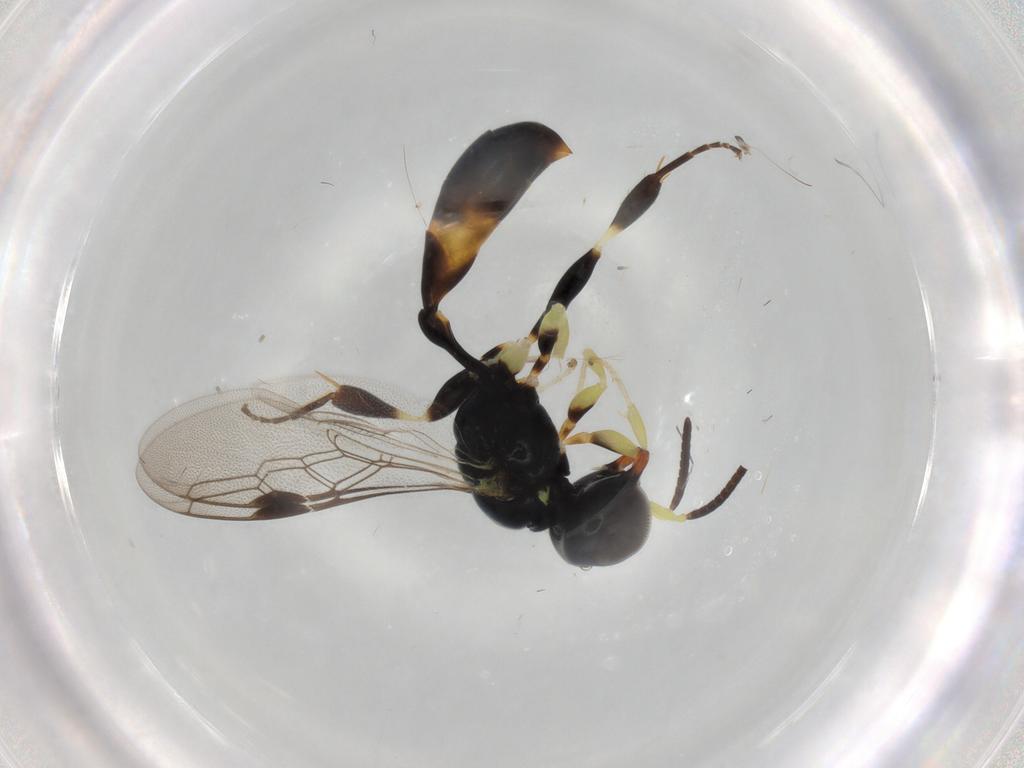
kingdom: Animalia
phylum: Arthropoda
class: Insecta
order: Hymenoptera
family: Crabronidae
